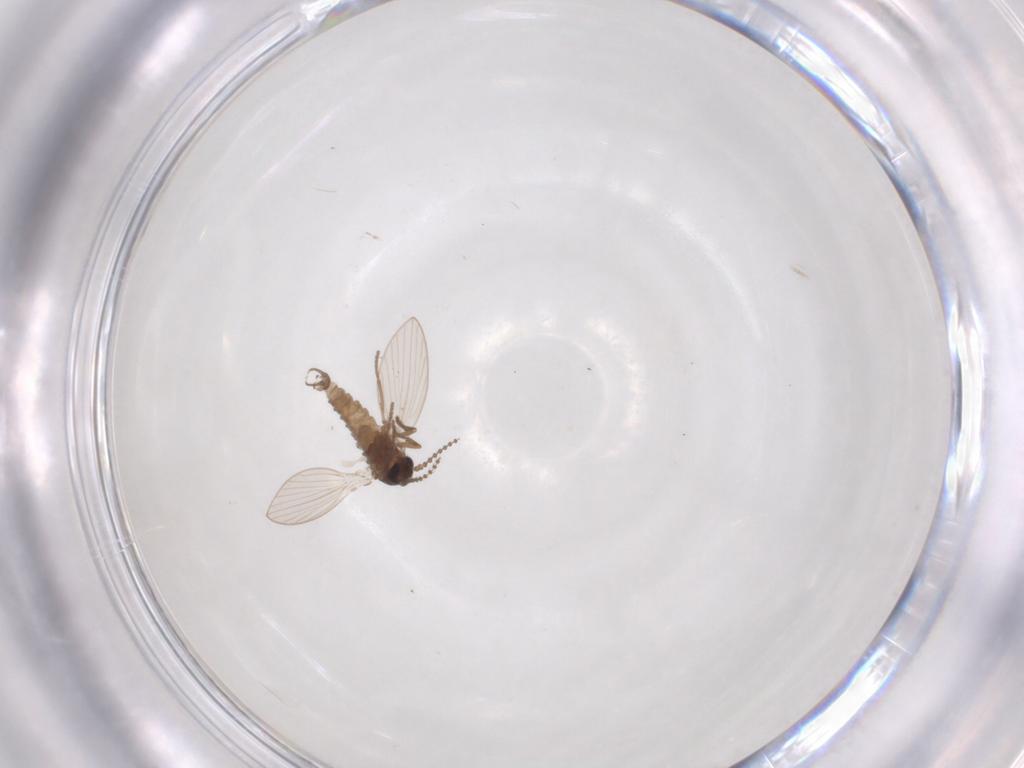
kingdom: Animalia
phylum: Arthropoda
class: Insecta
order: Diptera
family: Psychodidae
